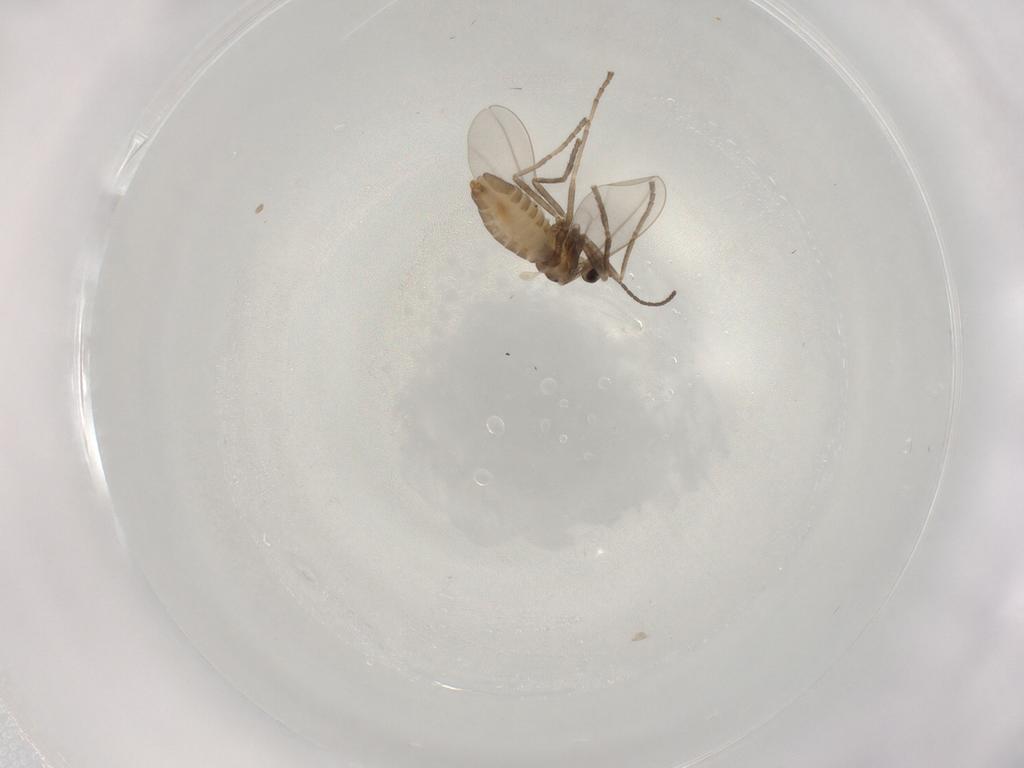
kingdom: Animalia
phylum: Arthropoda
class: Insecta
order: Diptera
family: Cecidomyiidae
